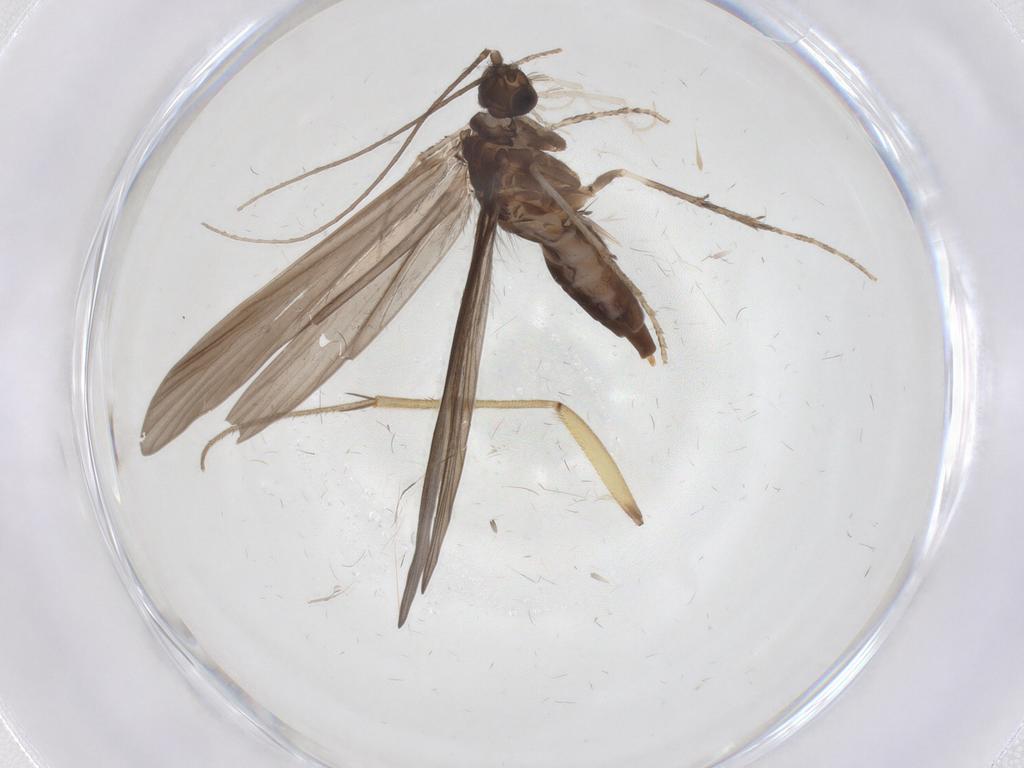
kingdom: Animalia
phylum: Arthropoda
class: Insecta
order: Trichoptera
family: Xiphocentronidae
